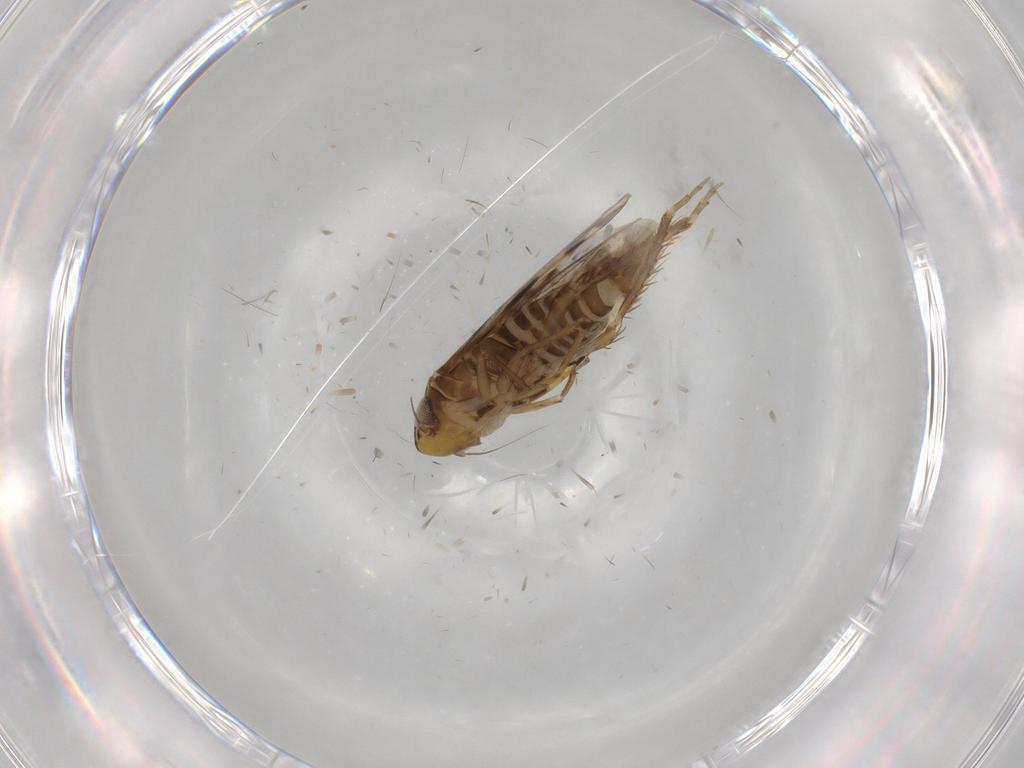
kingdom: Animalia
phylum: Arthropoda
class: Insecta
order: Hemiptera
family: Cicadellidae
